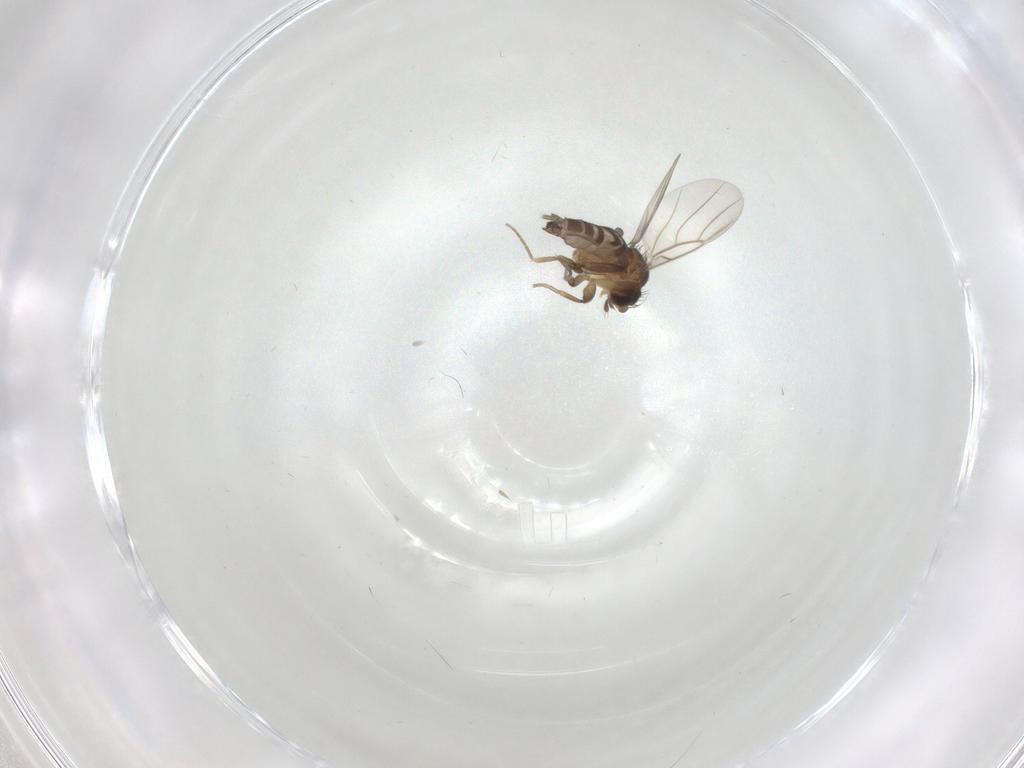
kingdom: Animalia
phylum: Arthropoda
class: Insecta
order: Diptera
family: Phoridae
